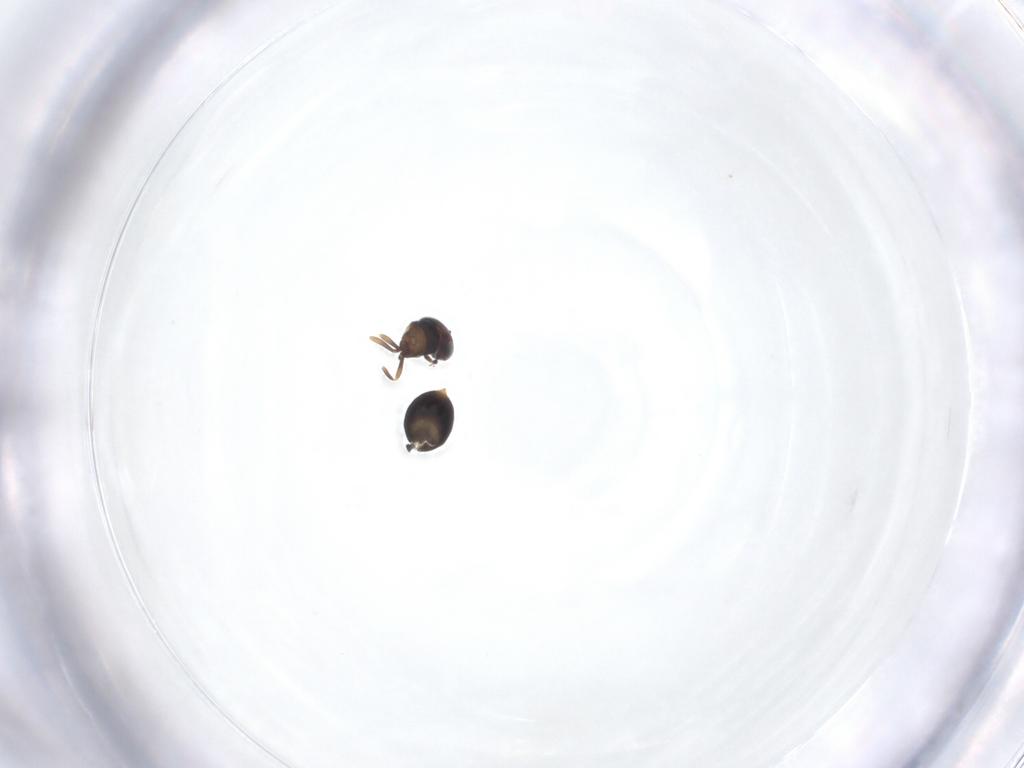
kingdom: Animalia
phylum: Arthropoda
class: Insecta
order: Hymenoptera
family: Scelionidae
